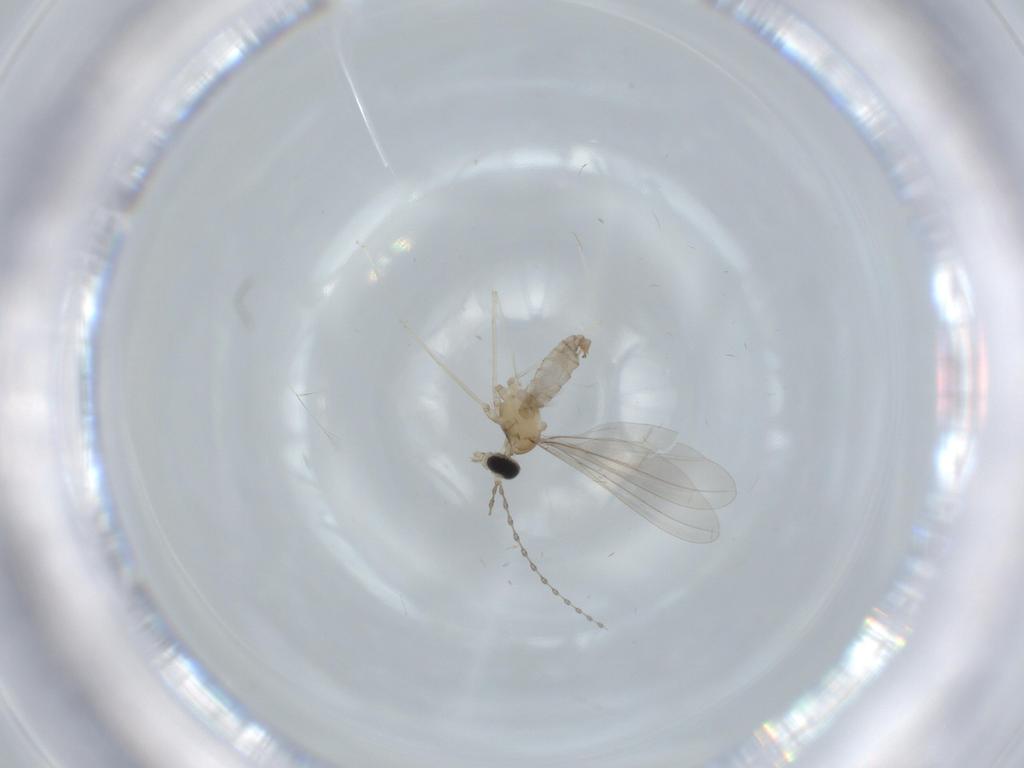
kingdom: Animalia
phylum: Arthropoda
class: Insecta
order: Diptera
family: Cecidomyiidae
